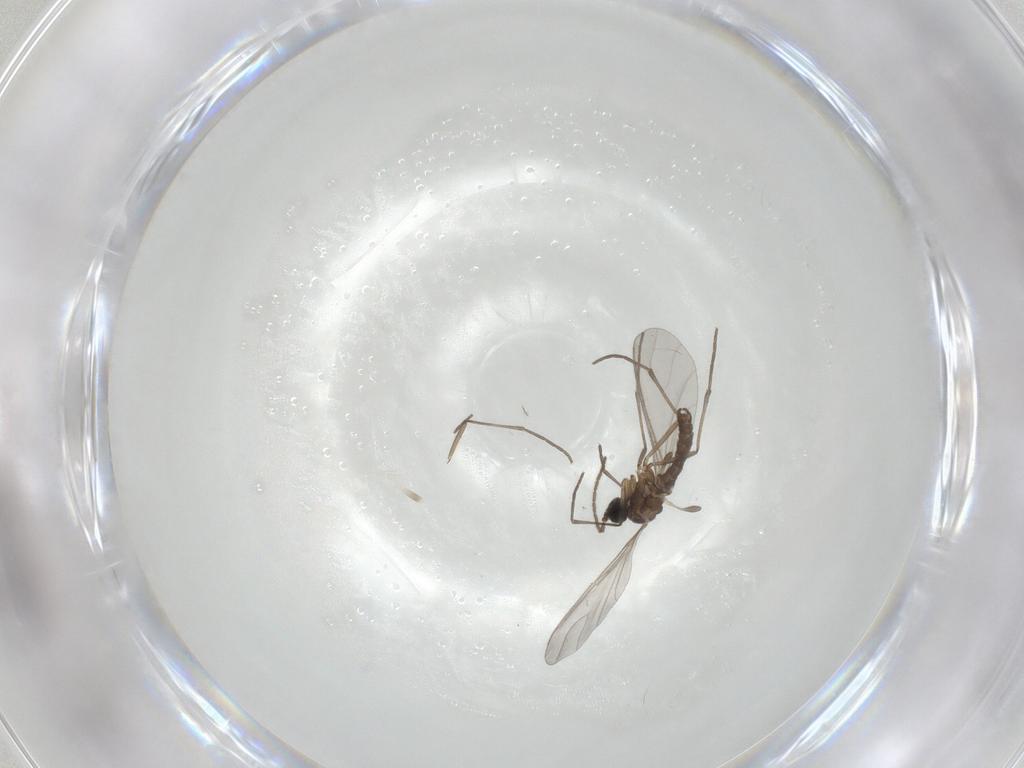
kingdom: Animalia
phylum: Arthropoda
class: Insecta
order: Diptera
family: Sciaridae
